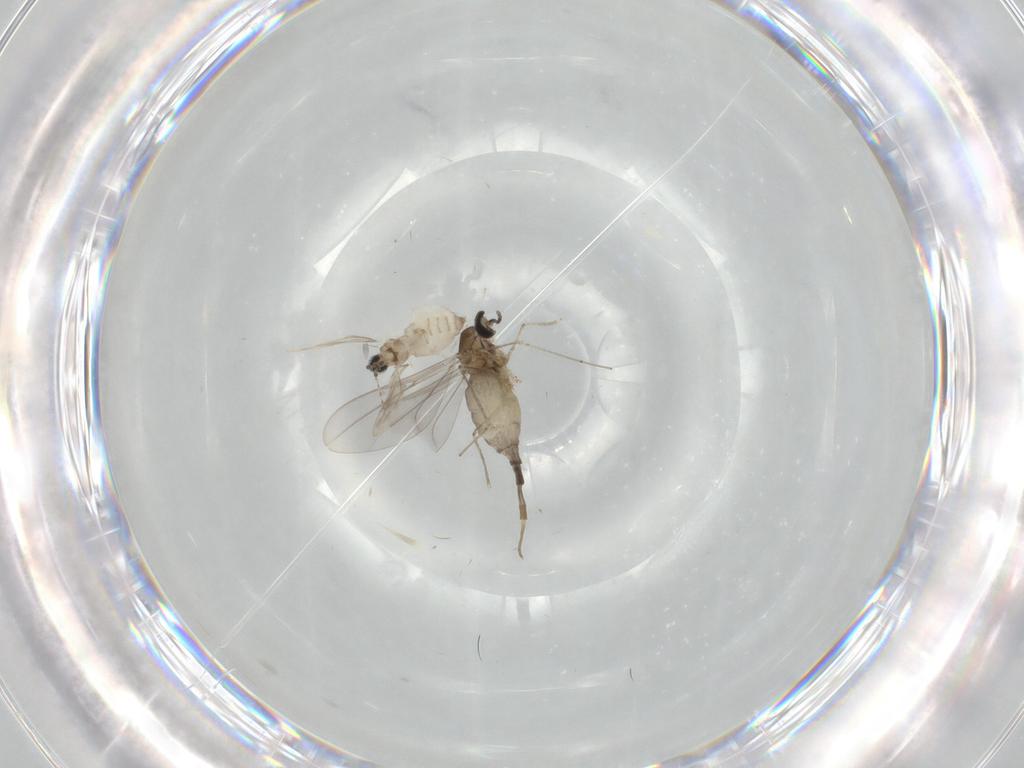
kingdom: Animalia
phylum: Arthropoda
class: Insecta
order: Diptera
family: Cecidomyiidae
